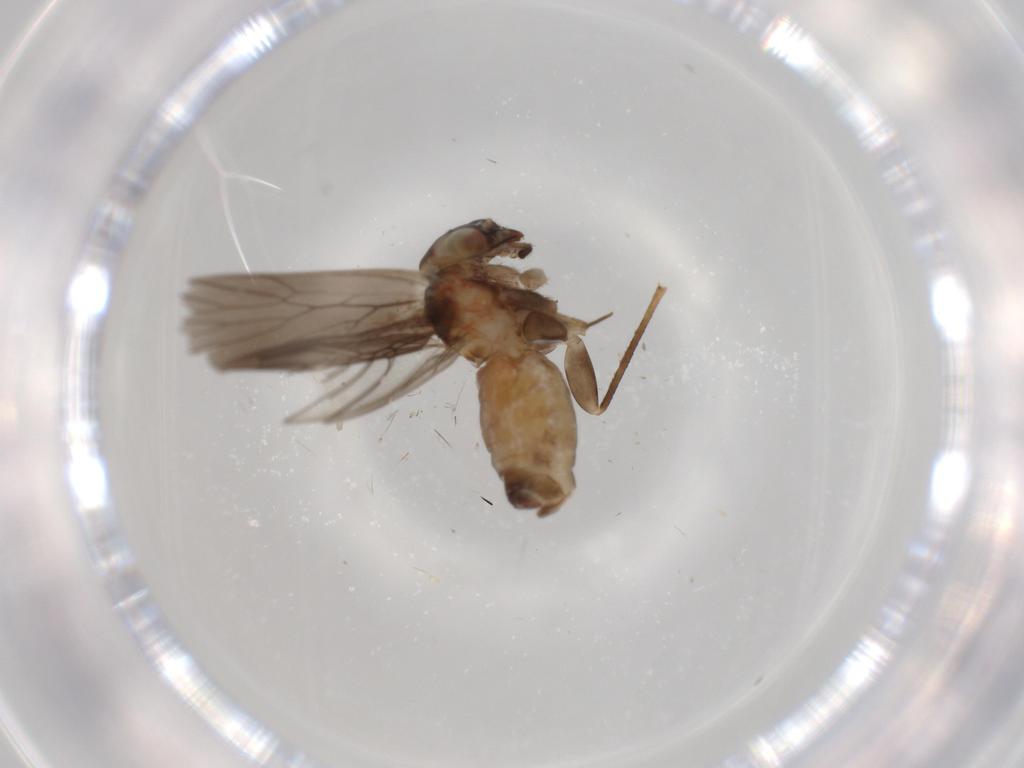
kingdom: Animalia
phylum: Arthropoda
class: Insecta
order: Psocodea
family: Lepidopsocidae
